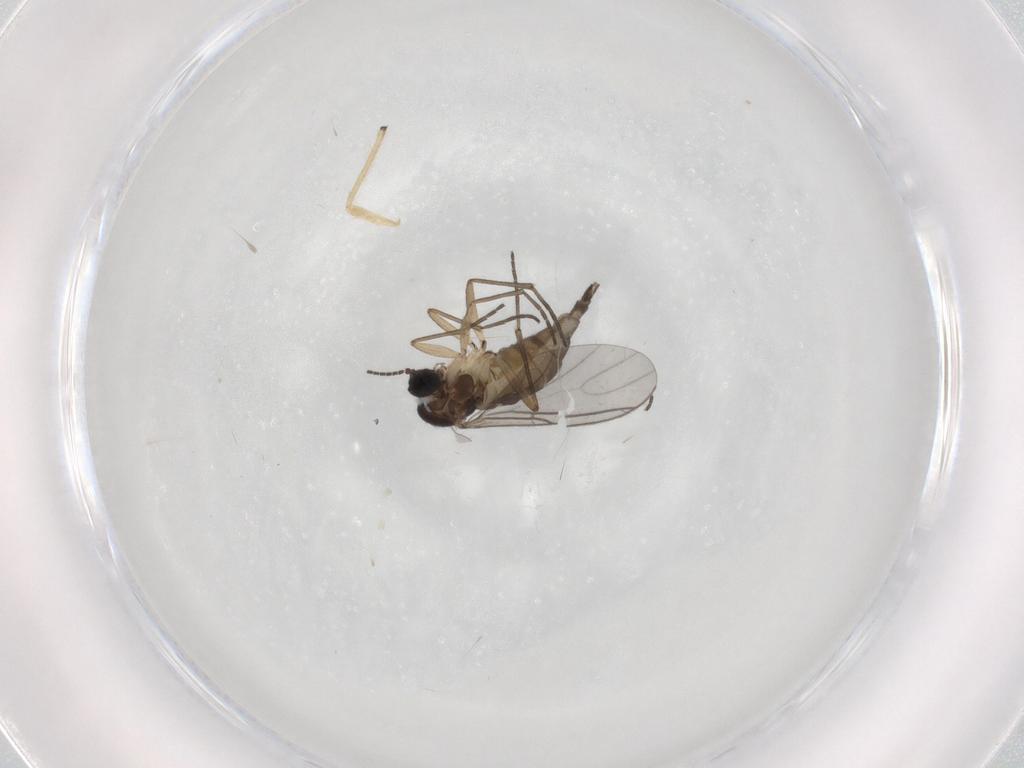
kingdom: Animalia
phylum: Arthropoda
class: Insecta
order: Diptera
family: Sciaridae
